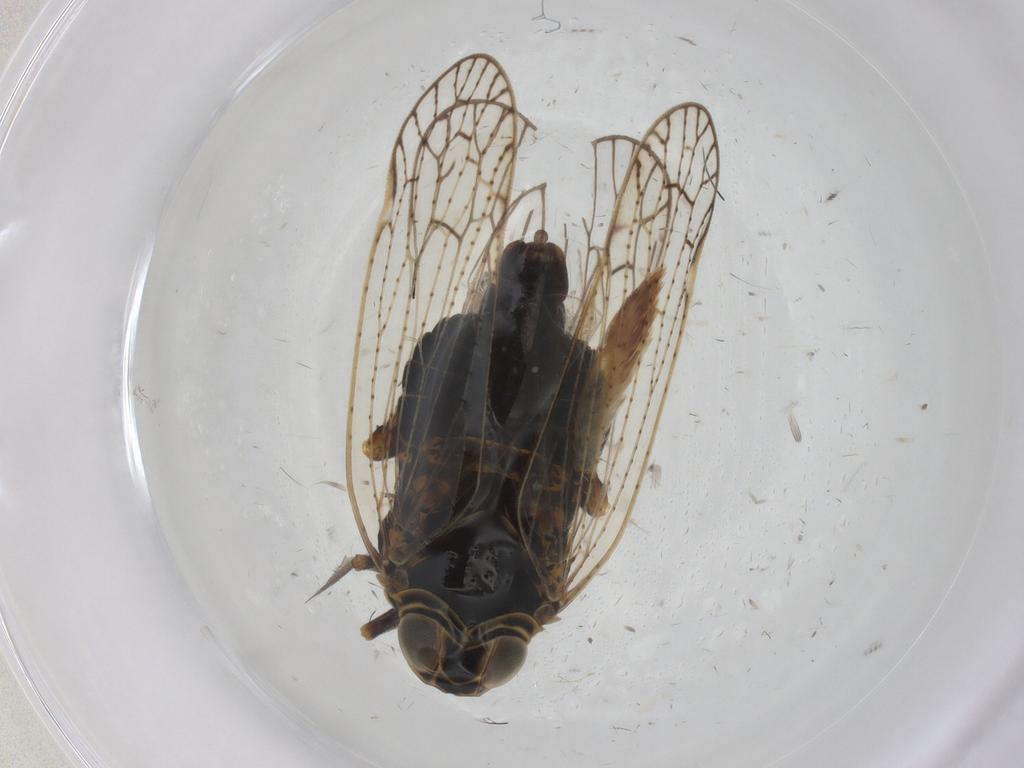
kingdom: Animalia
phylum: Arthropoda
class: Insecta
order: Hemiptera
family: Cixiidae
